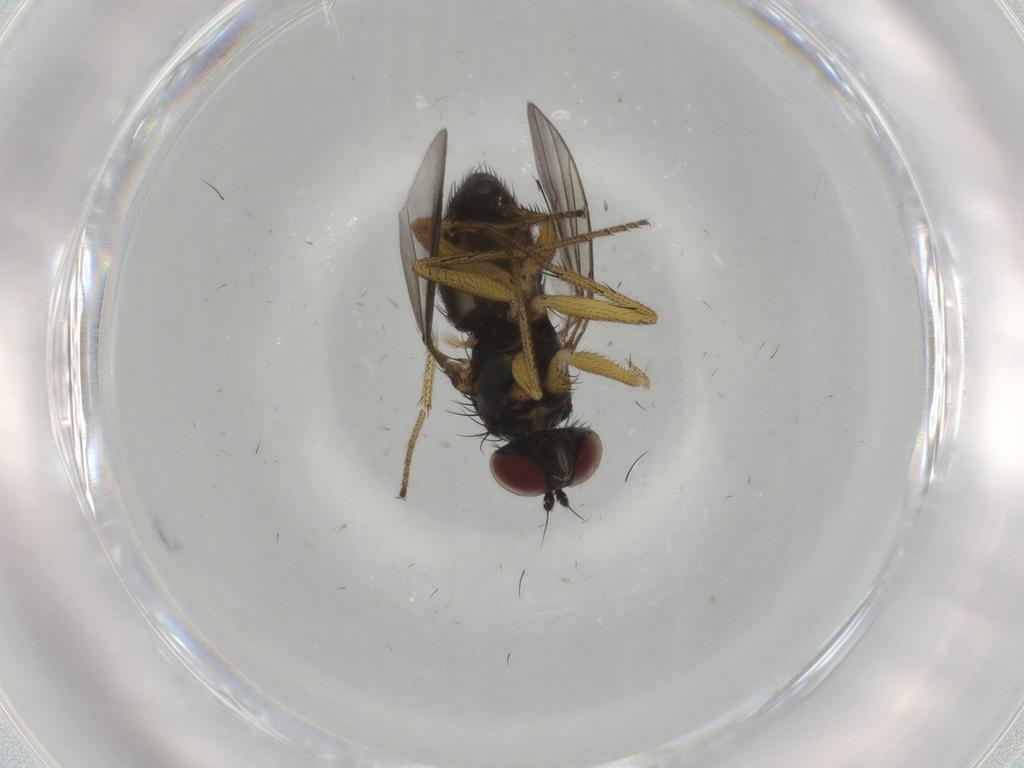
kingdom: Animalia
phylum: Arthropoda
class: Insecta
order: Diptera
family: Dolichopodidae
